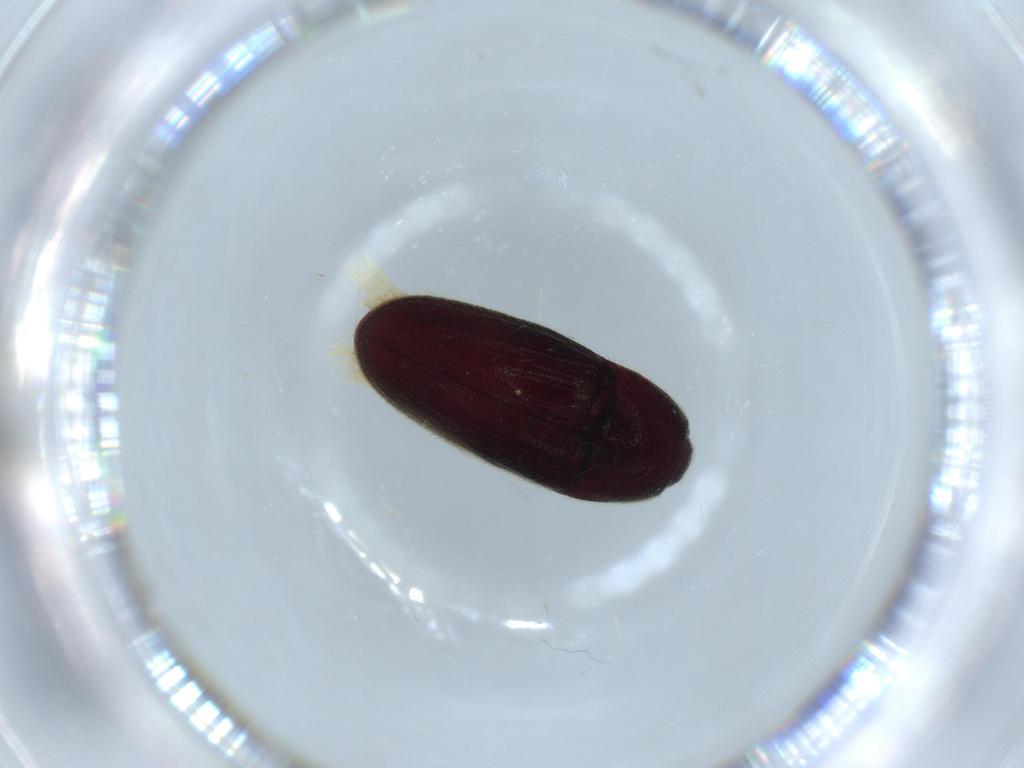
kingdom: Animalia
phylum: Arthropoda
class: Insecta
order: Coleoptera
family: Throscidae
